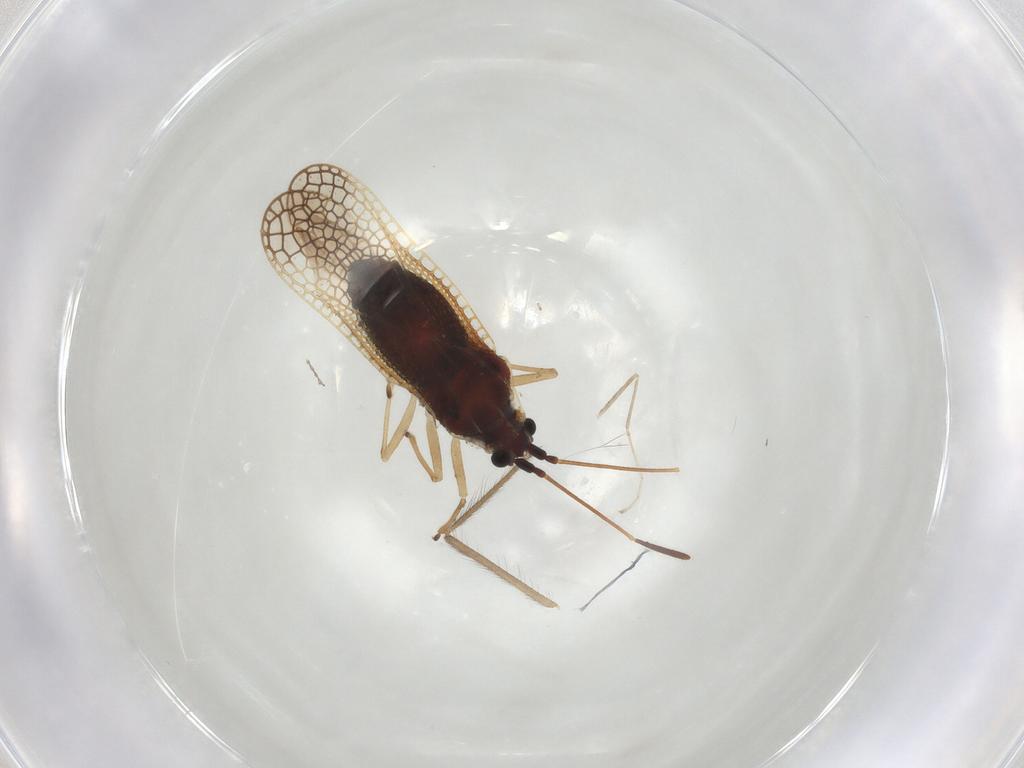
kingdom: Animalia
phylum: Arthropoda
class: Insecta
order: Hemiptera
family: Tingidae
